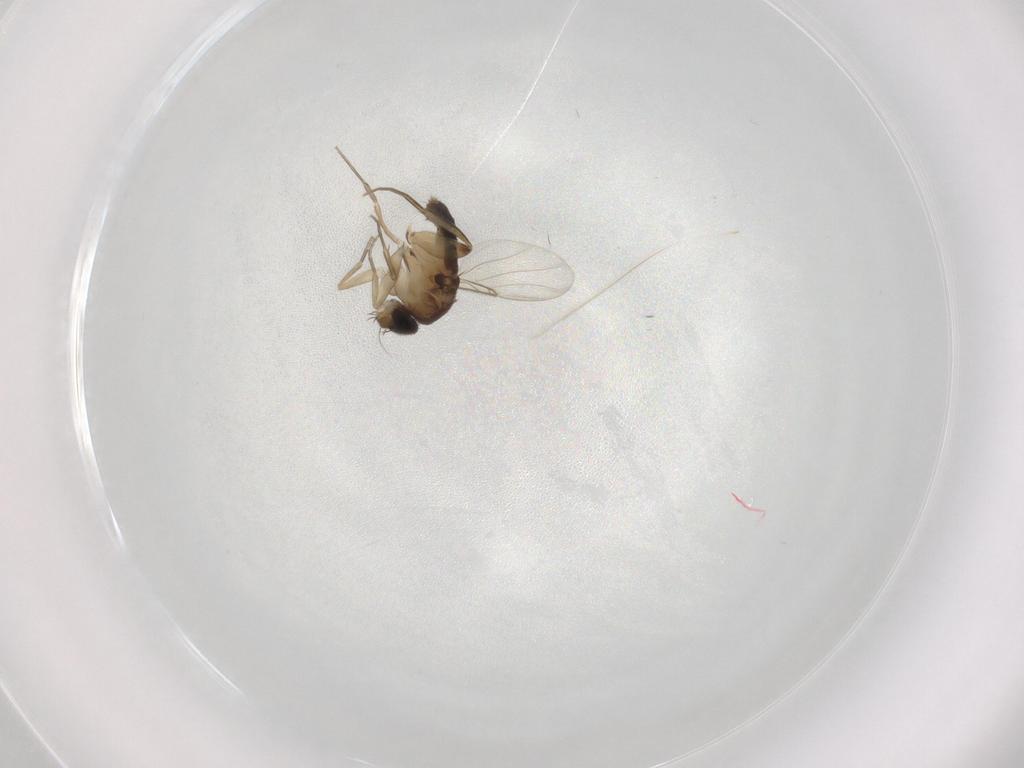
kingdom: Animalia
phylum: Arthropoda
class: Insecta
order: Diptera
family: Phoridae
